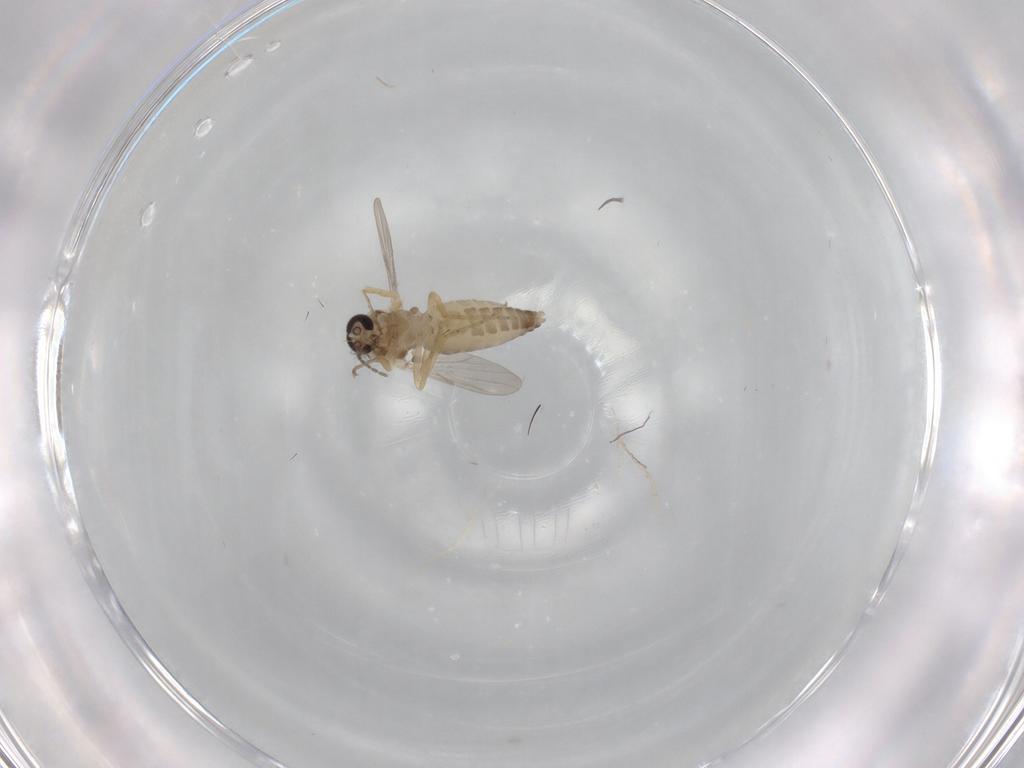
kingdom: Animalia
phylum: Arthropoda
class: Insecta
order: Diptera
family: Ceratopogonidae
